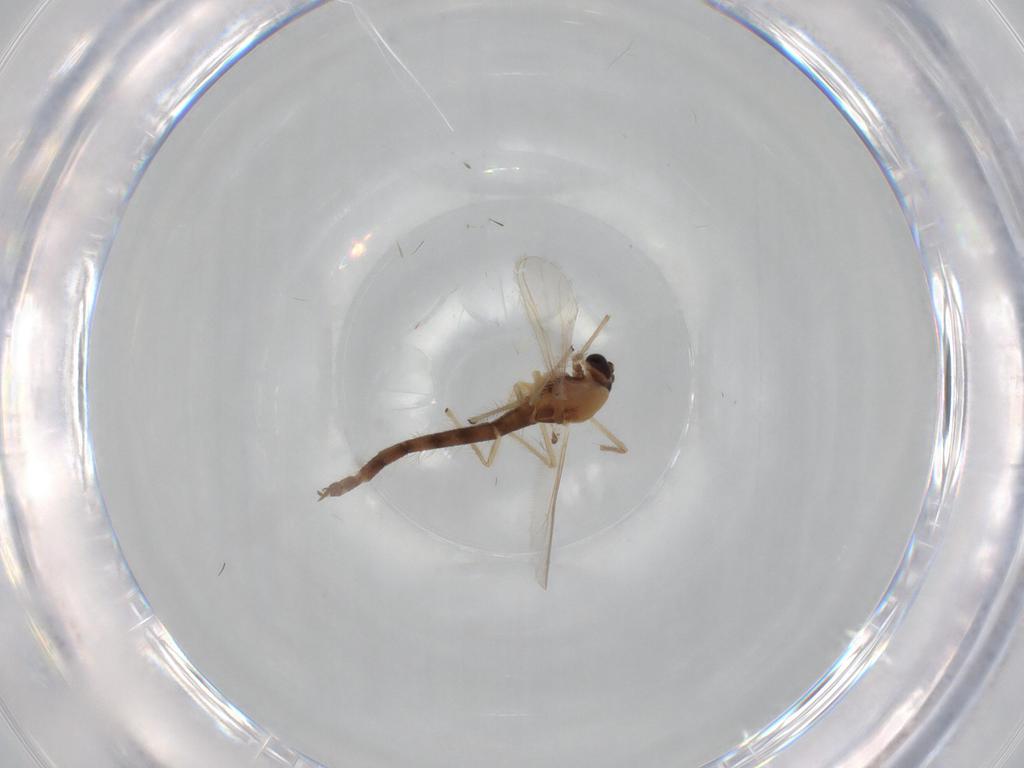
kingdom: Animalia
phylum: Arthropoda
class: Insecta
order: Diptera
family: Chironomidae
